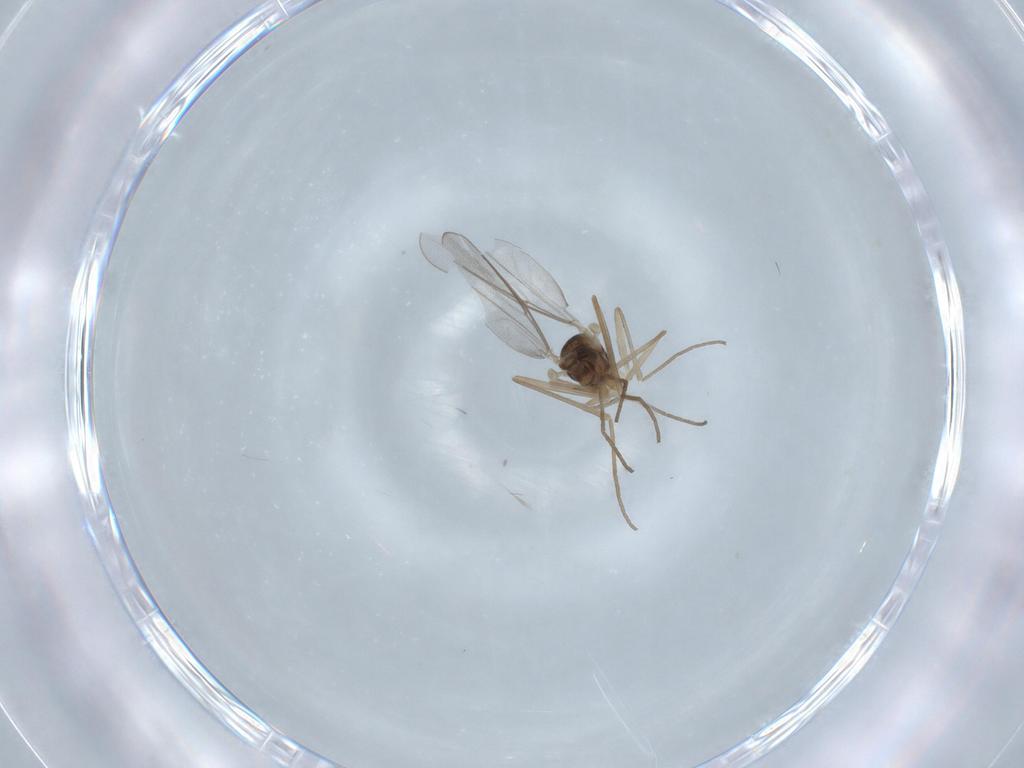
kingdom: Animalia
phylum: Arthropoda
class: Insecta
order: Diptera
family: Cecidomyiidae
